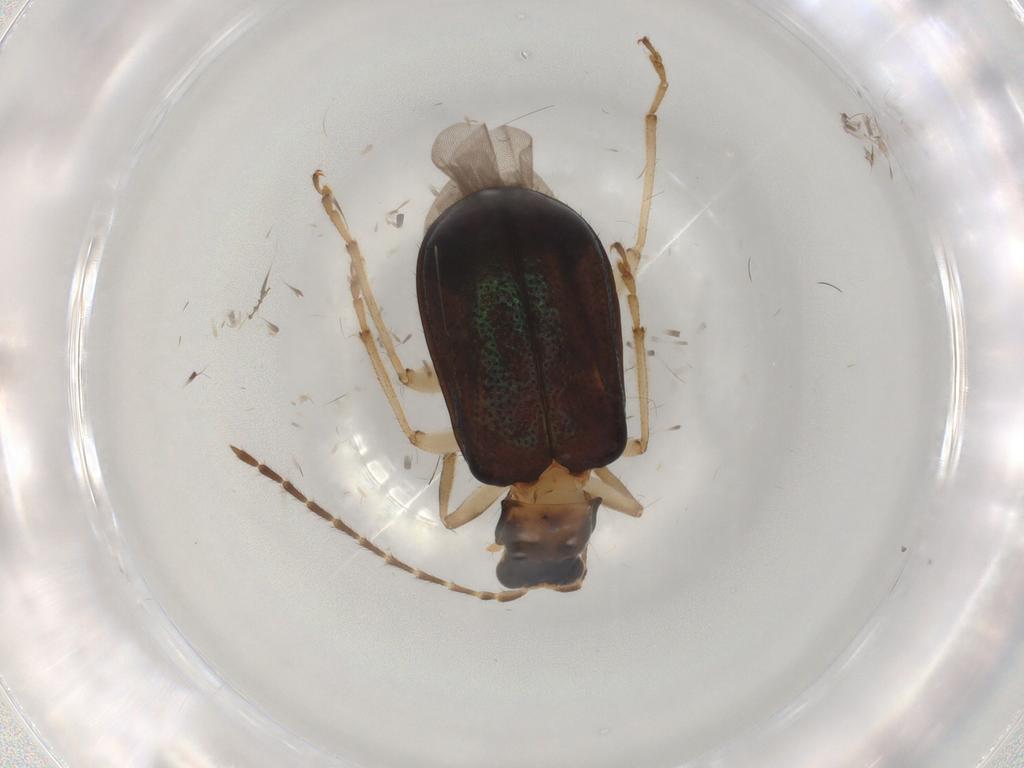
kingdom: Animalia
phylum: Arthropoda
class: Insecta
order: Coleoptera
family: Chrysomelidae
